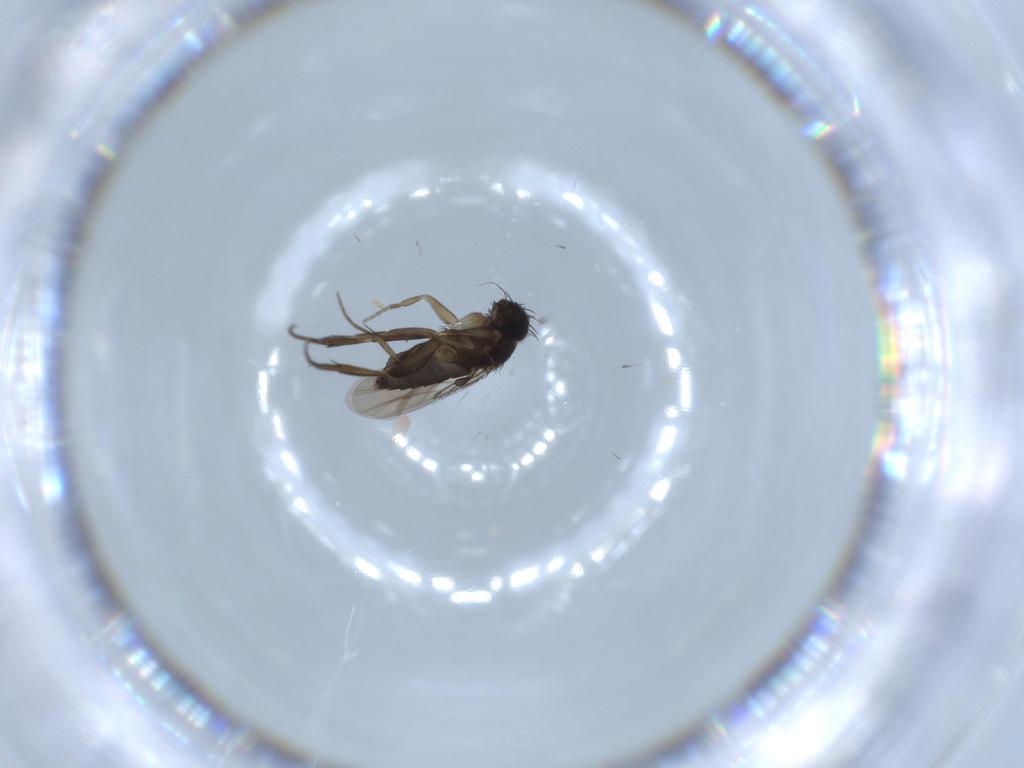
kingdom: Animalia
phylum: Arthropoda
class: Insecta
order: Diptera
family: Phoridae
